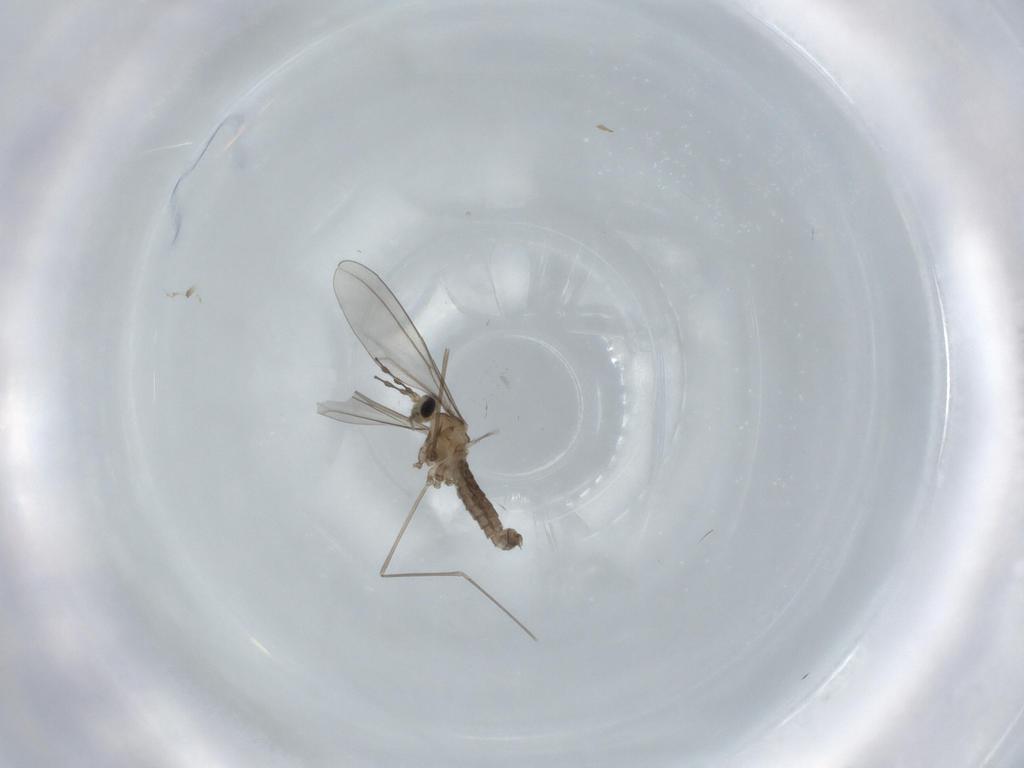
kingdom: Animalia
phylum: Arthropoda
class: Insecta
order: Diptera
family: Cecidomyiidae
